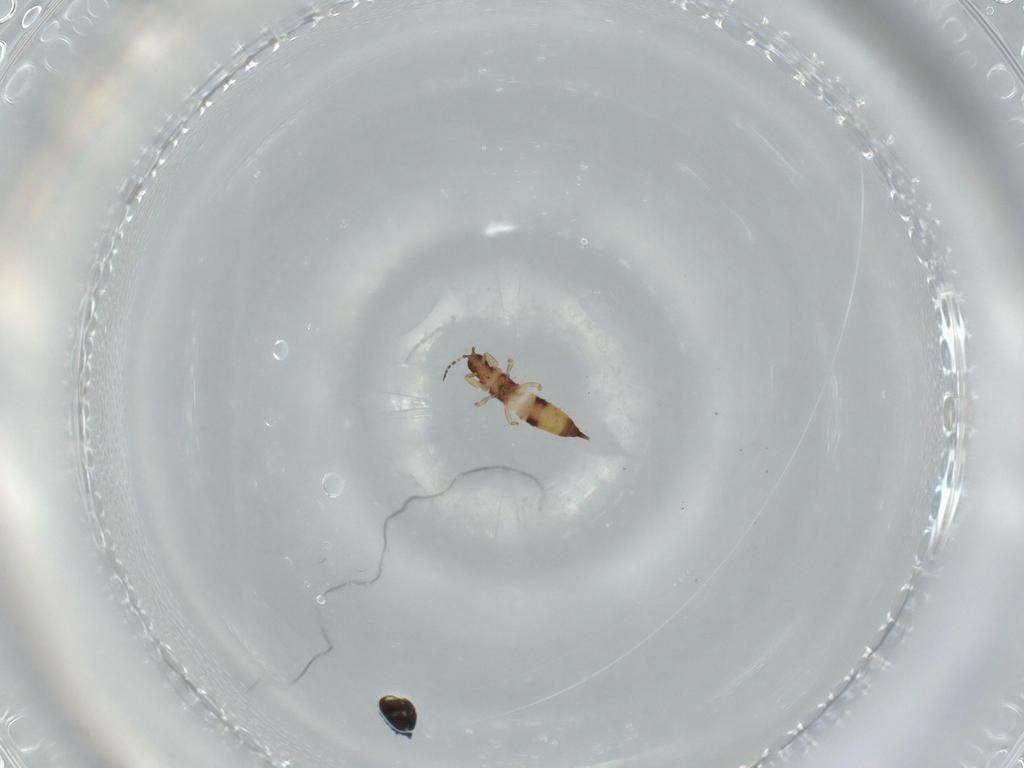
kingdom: Animalia
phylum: Arthropoda
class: Insecta
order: Thysanoptera
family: Phlaeothripidae
